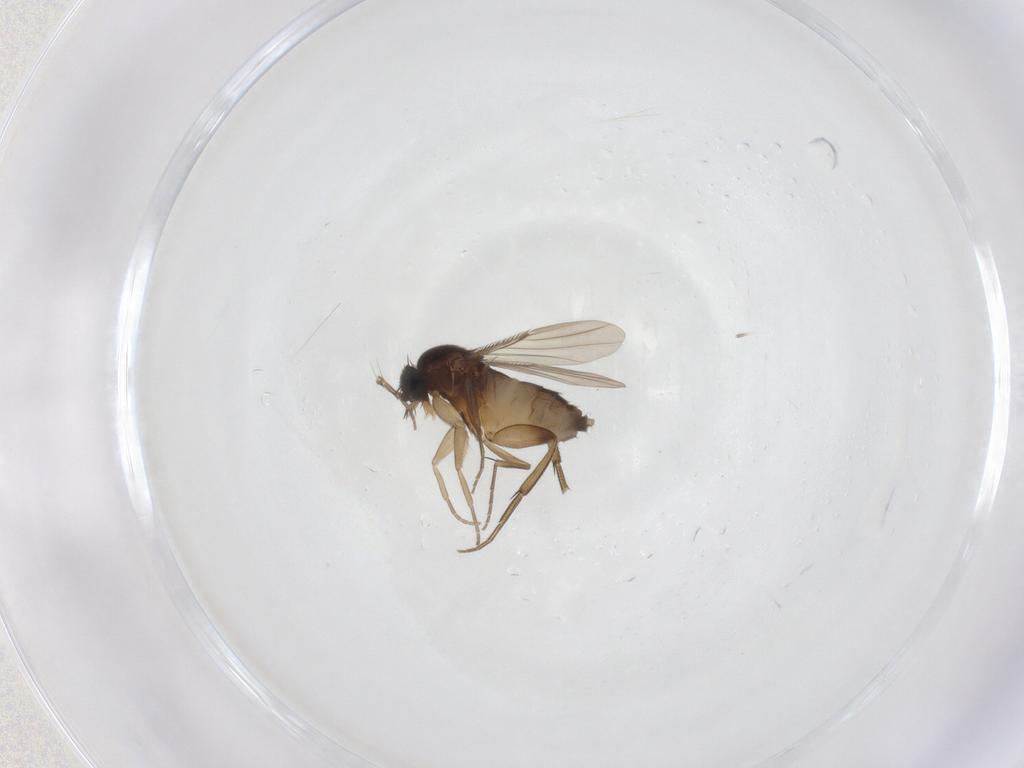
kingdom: Animalia
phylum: Arthropoda
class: Insecta
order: Diptera
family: Phoridae
